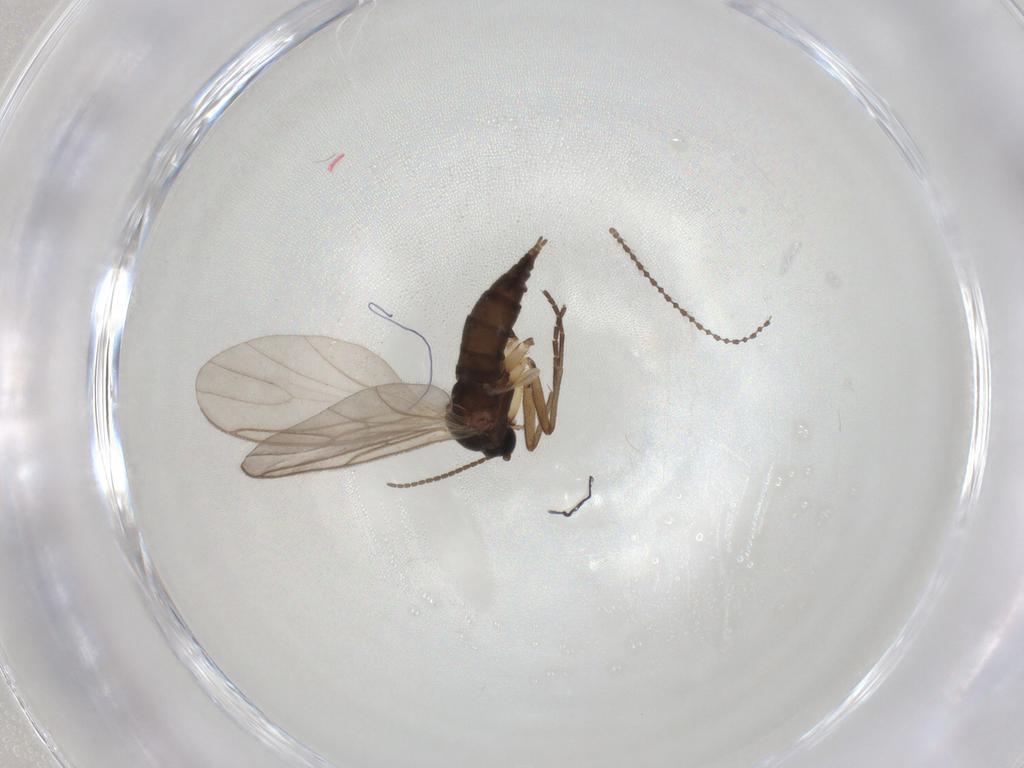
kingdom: Animalia
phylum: Arthropoda
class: Insecta
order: Diptera
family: Cecidomyiidae
